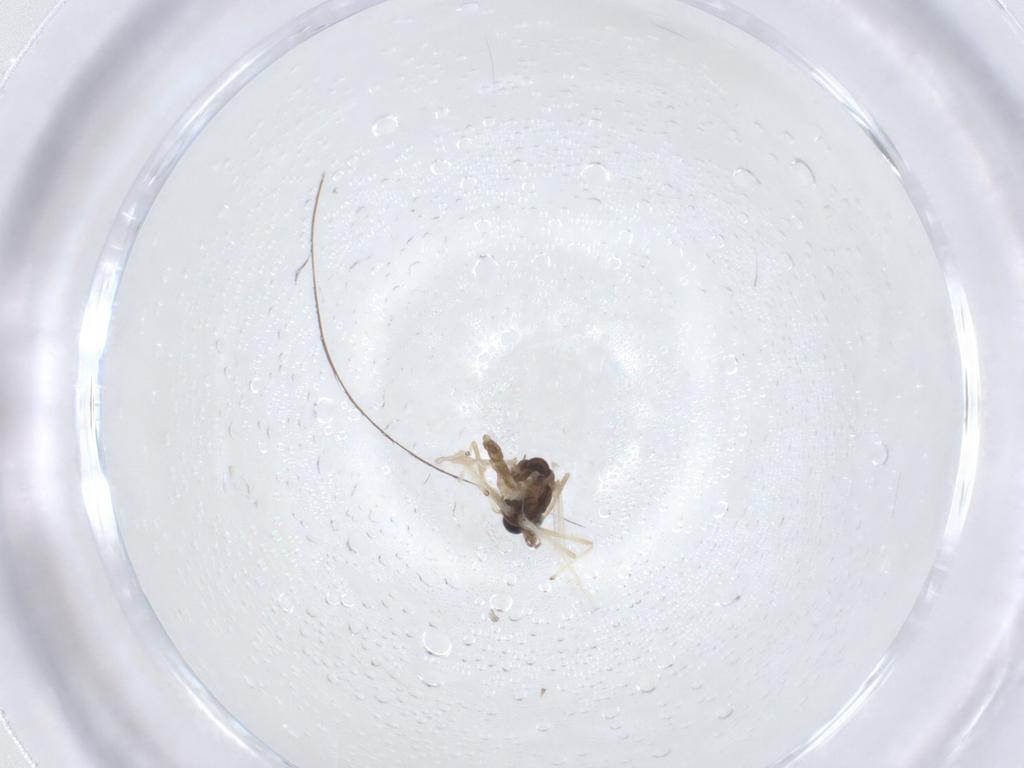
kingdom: Animalia
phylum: Arthropoda
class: Insecta
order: Diptera
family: Chironomidae
